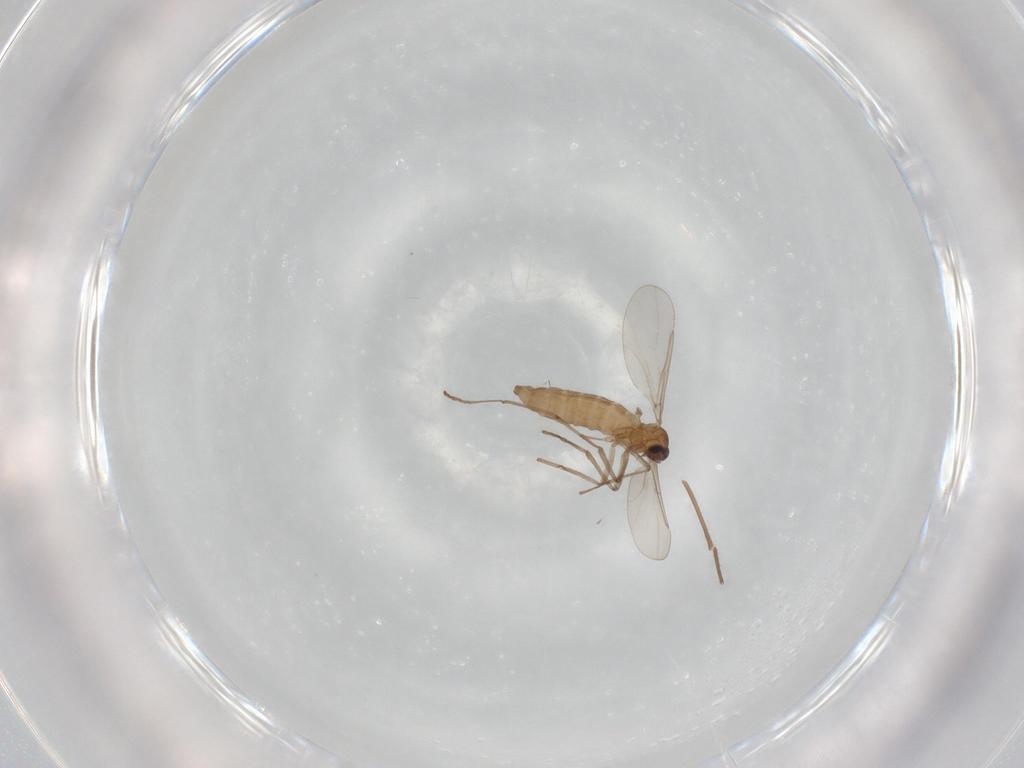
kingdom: Animalia
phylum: Arthropoda
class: Insecta
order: Diptera
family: Cecidomyiidae
